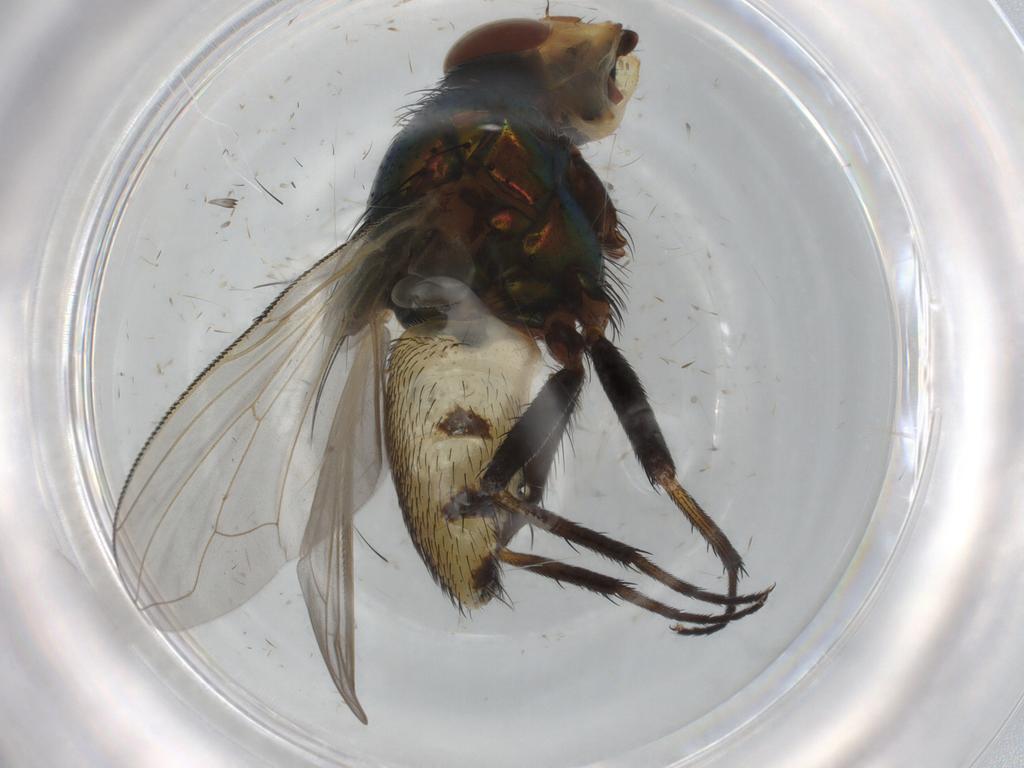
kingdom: Animalia
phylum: Arthropoda
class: Insecta
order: Diptera
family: Calliphoridae
